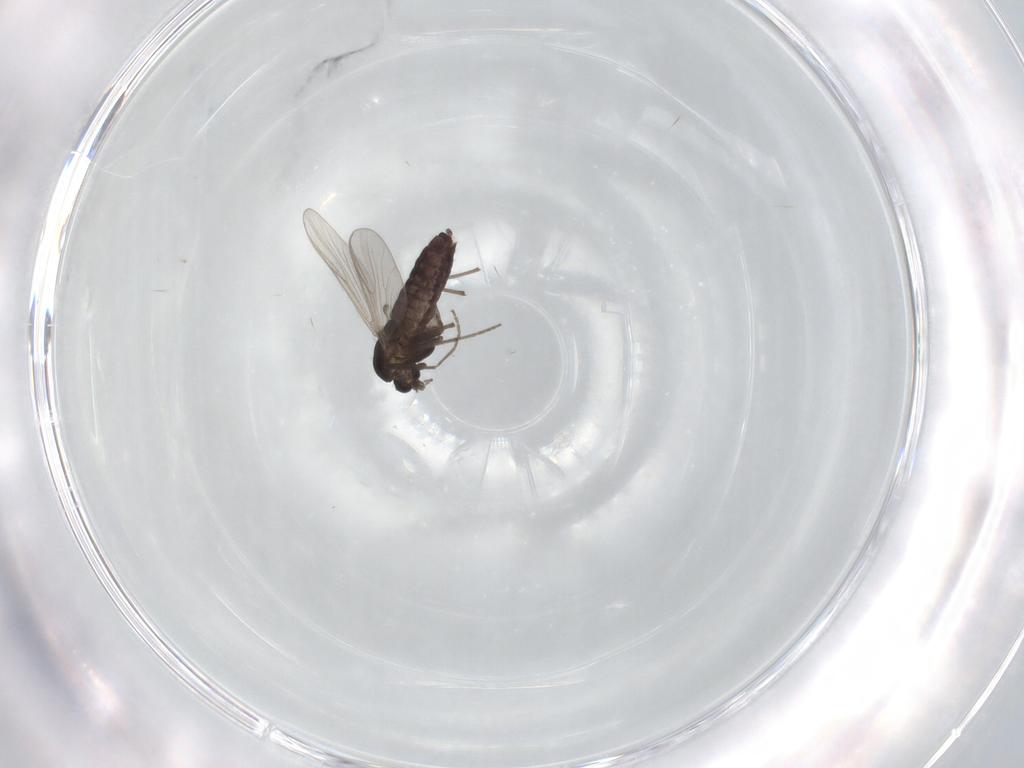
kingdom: Animalia
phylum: Arthropoda
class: Insecta
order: Diptera
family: Chironomidae
